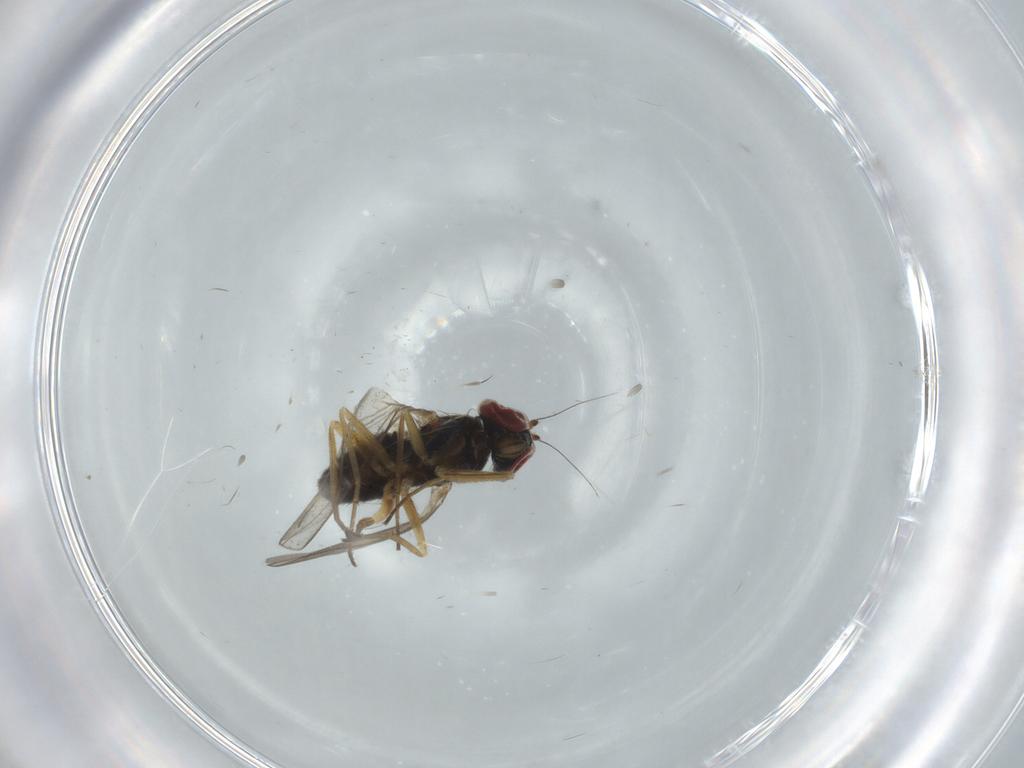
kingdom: Animalia
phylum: Arthropoda
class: Insecta
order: Diptera
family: Dolichopodidae
